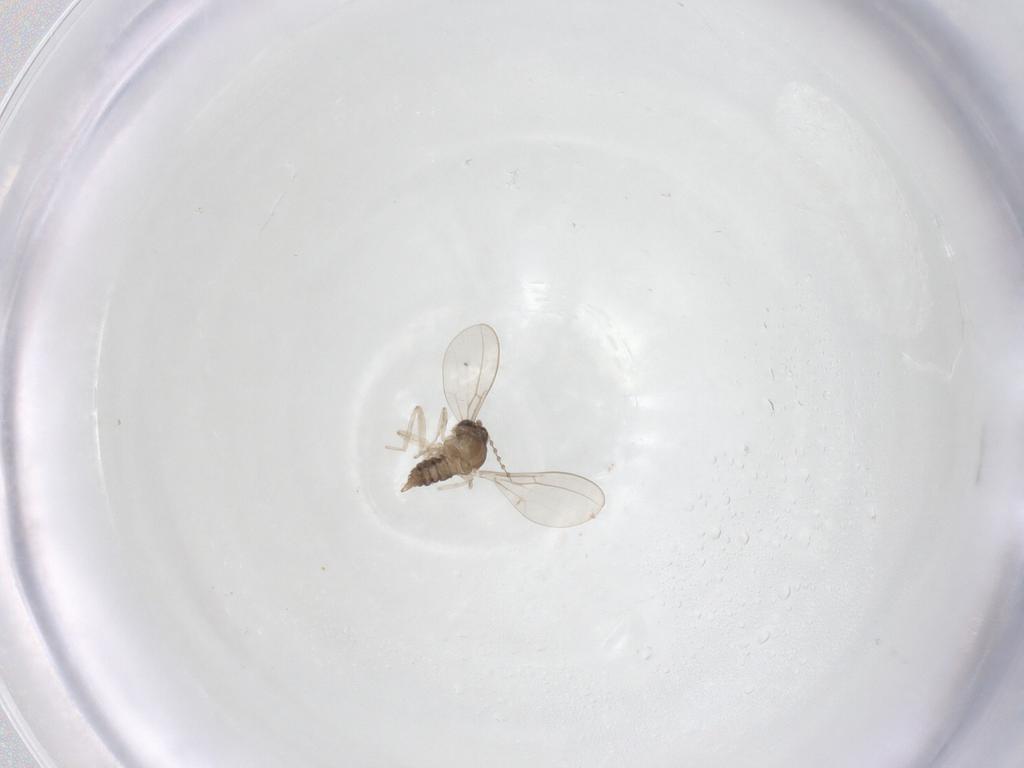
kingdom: Animalia
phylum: Arthropoda
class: Insecta
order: Diptera
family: Cecidomyiidae
